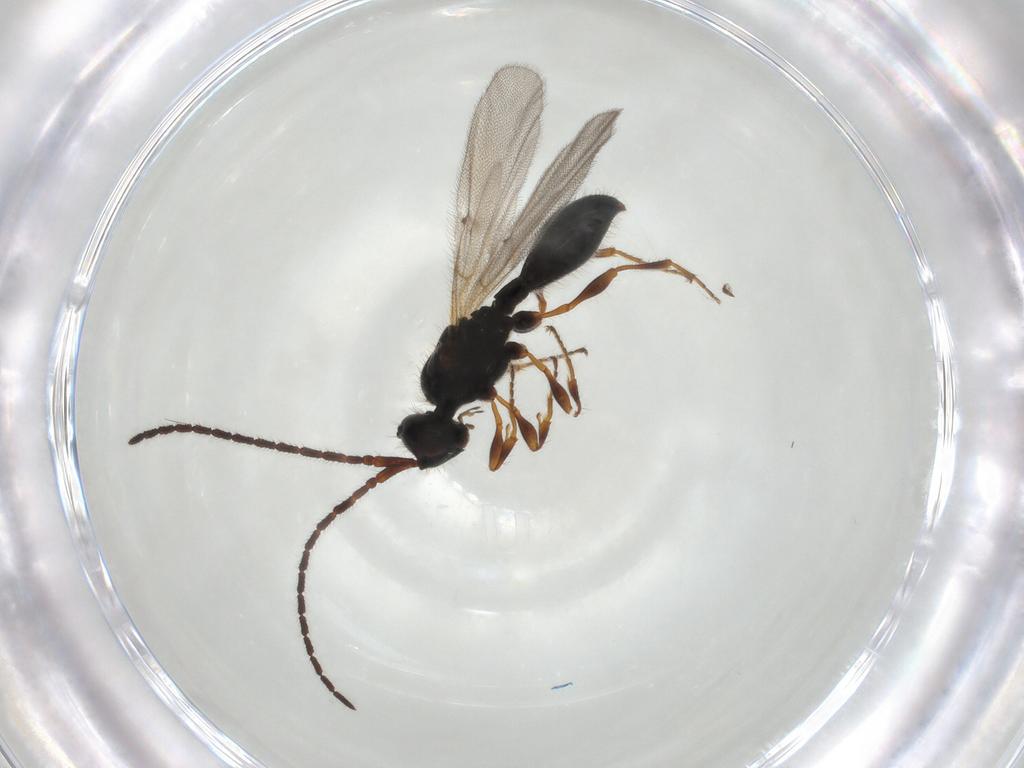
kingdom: Animalia
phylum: Arthropoda
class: Insecta
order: Hymenoptera
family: Diapriidae
